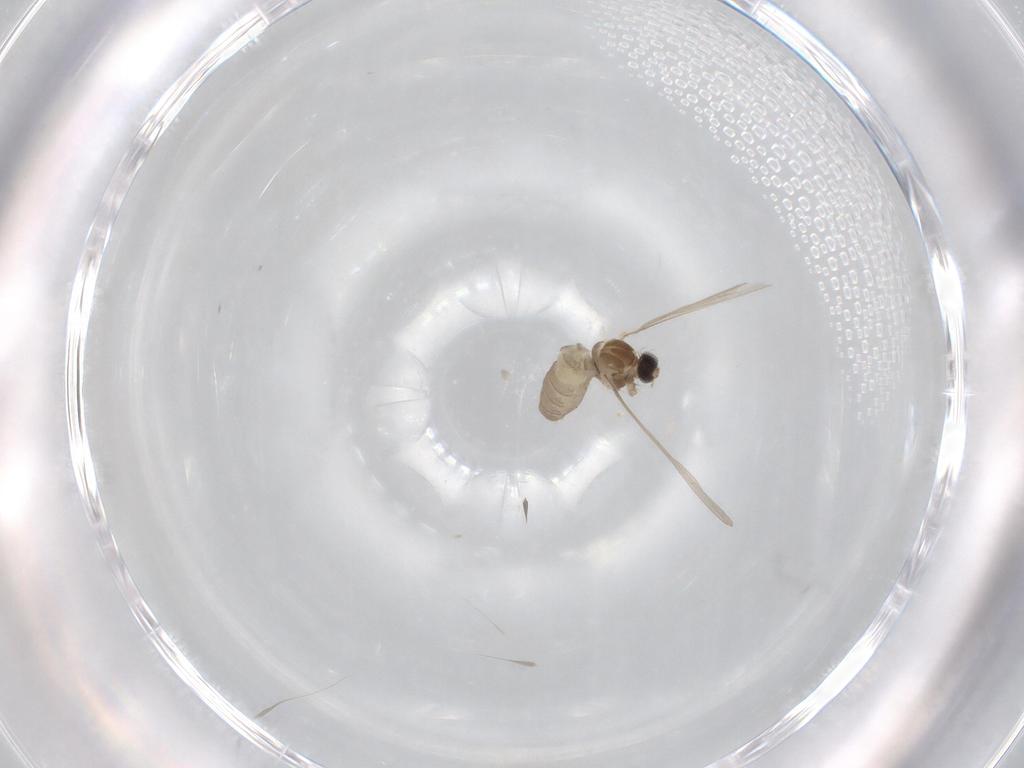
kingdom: Animalia
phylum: Arthropoda
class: Insecta
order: Diptera
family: Cecidomyiidae
